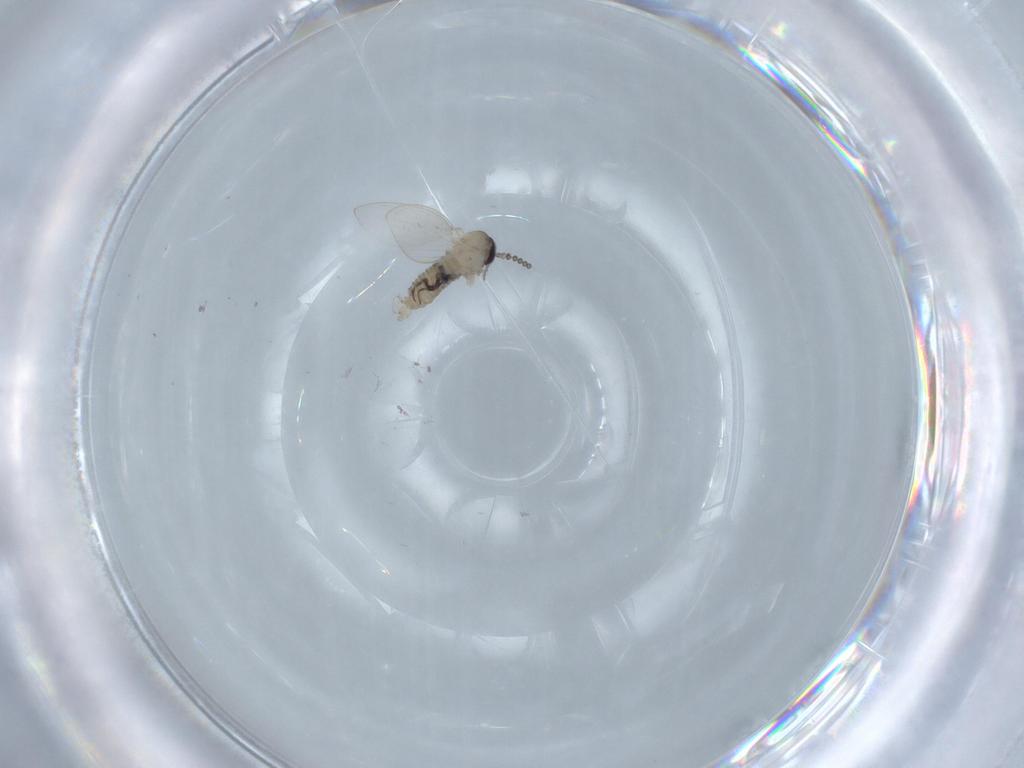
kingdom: Animalia
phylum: Arthropoda
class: Insecta
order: Diptera
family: Psychodidae
